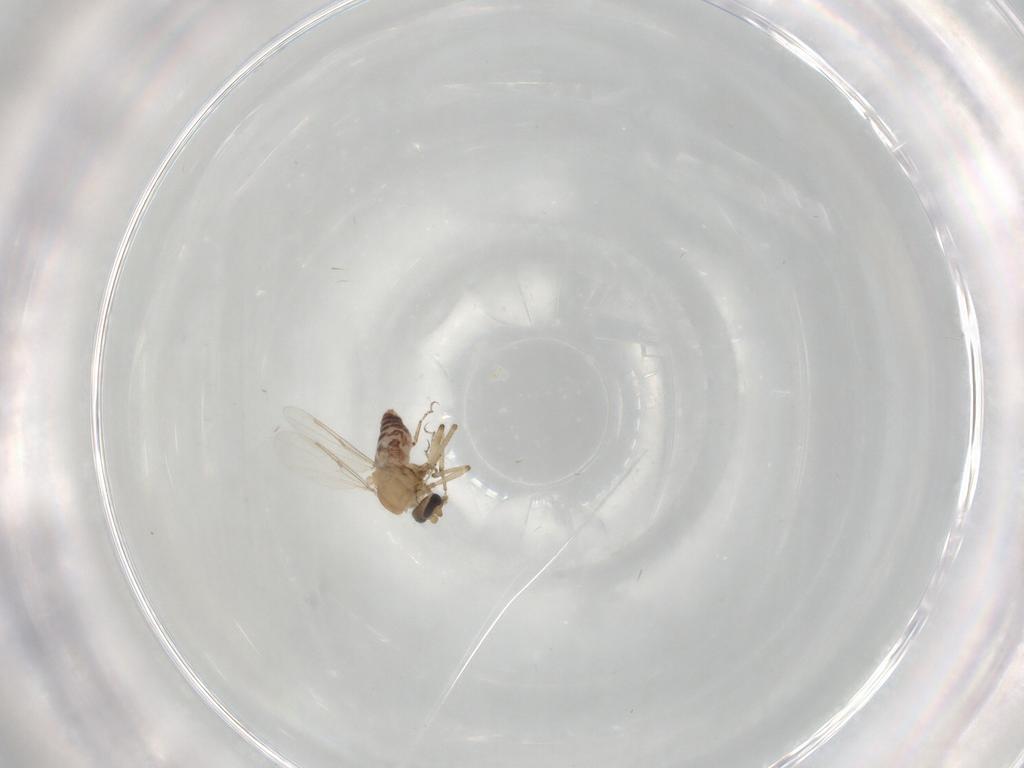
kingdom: Animalia
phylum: Arthropoda
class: Insecta
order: Diptera
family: Ceratopogonidae
